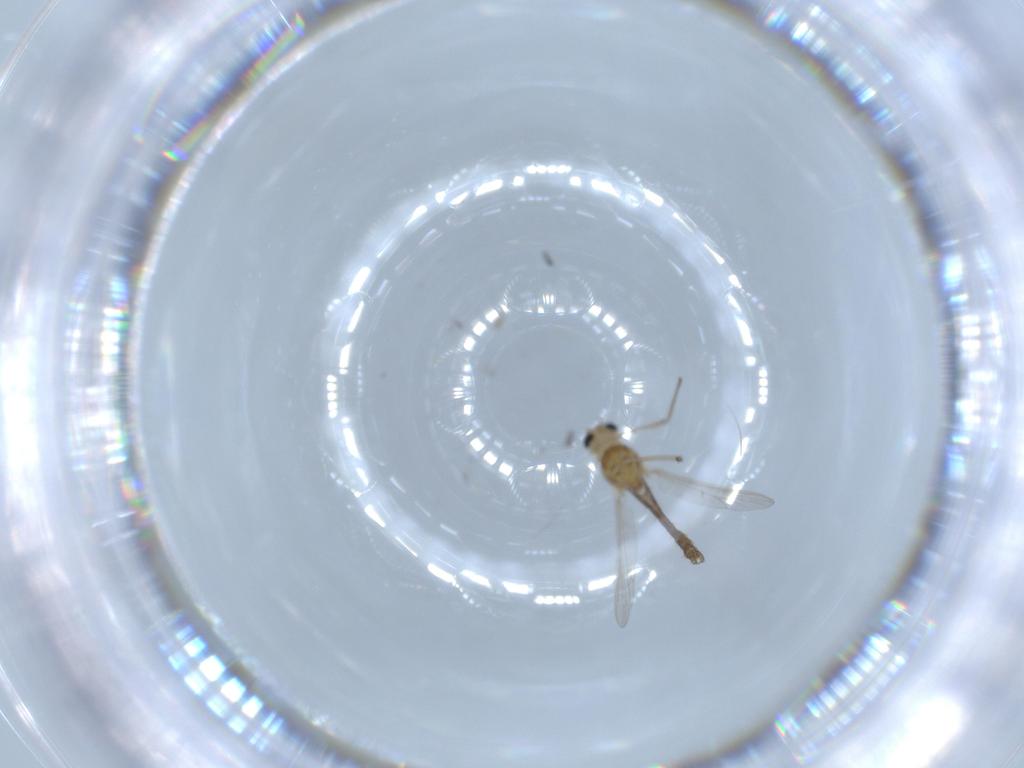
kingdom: Animalia
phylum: Arthropoda
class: Insecta
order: Diptera
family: Chironomidae
